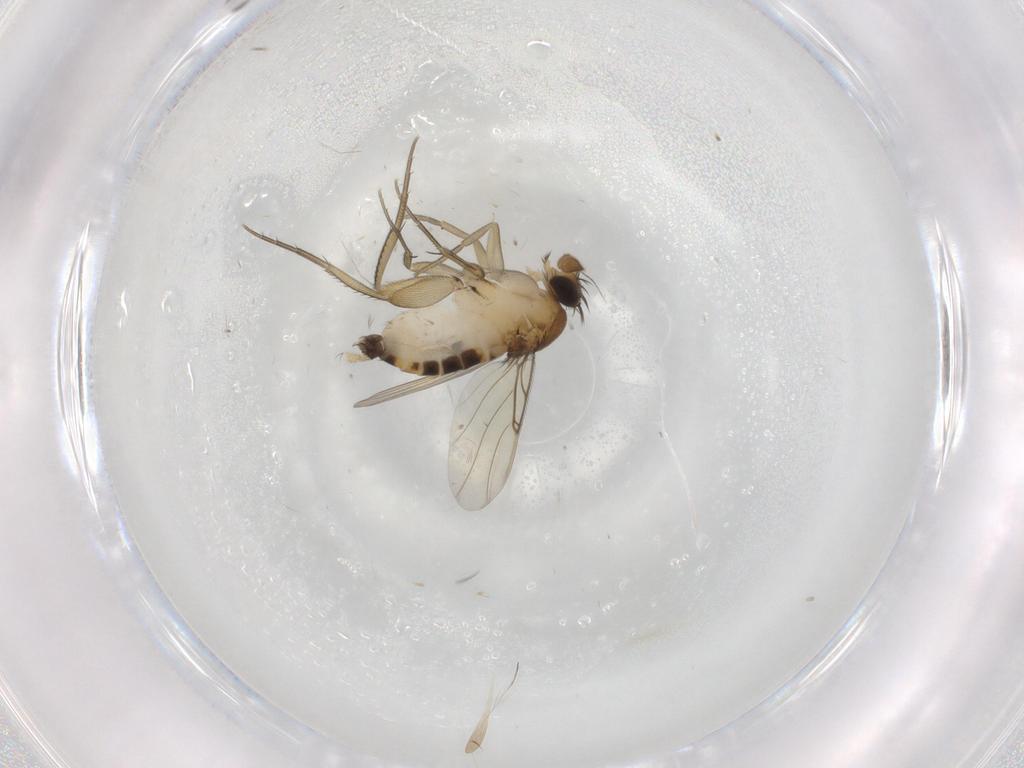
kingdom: Animalia
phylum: Arthropoda
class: Insecta
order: Diptera
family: Phoridae
